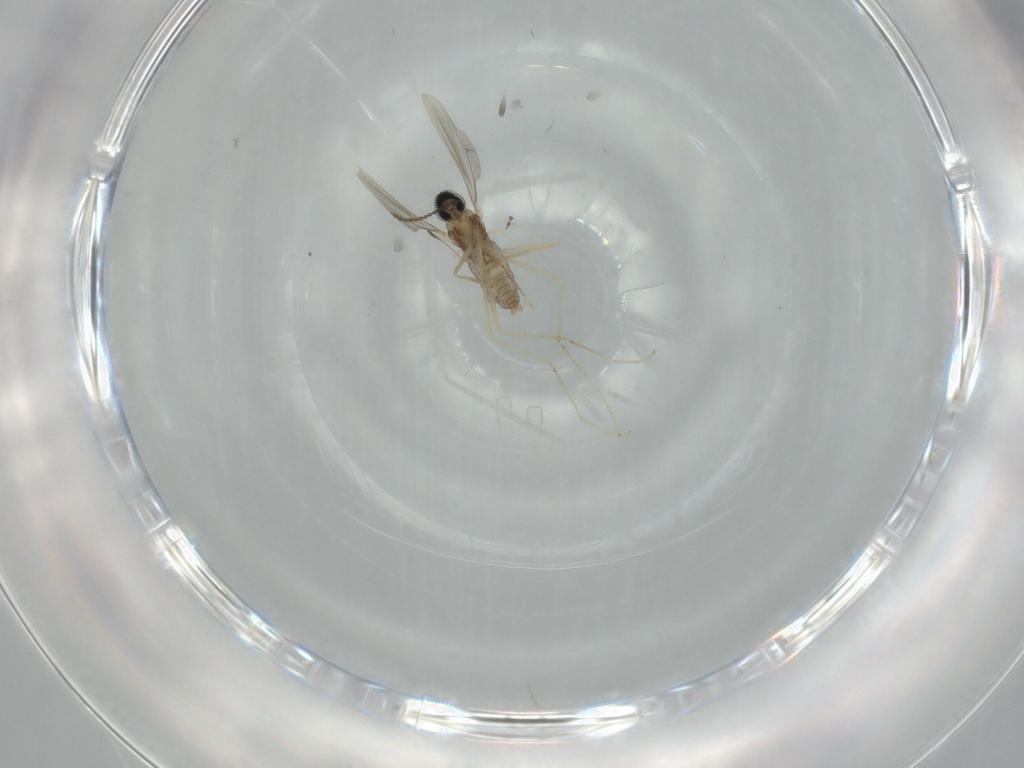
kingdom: Animalia
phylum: Arthropoda
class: Insecta
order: Diptera
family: Cecidomyiidae
